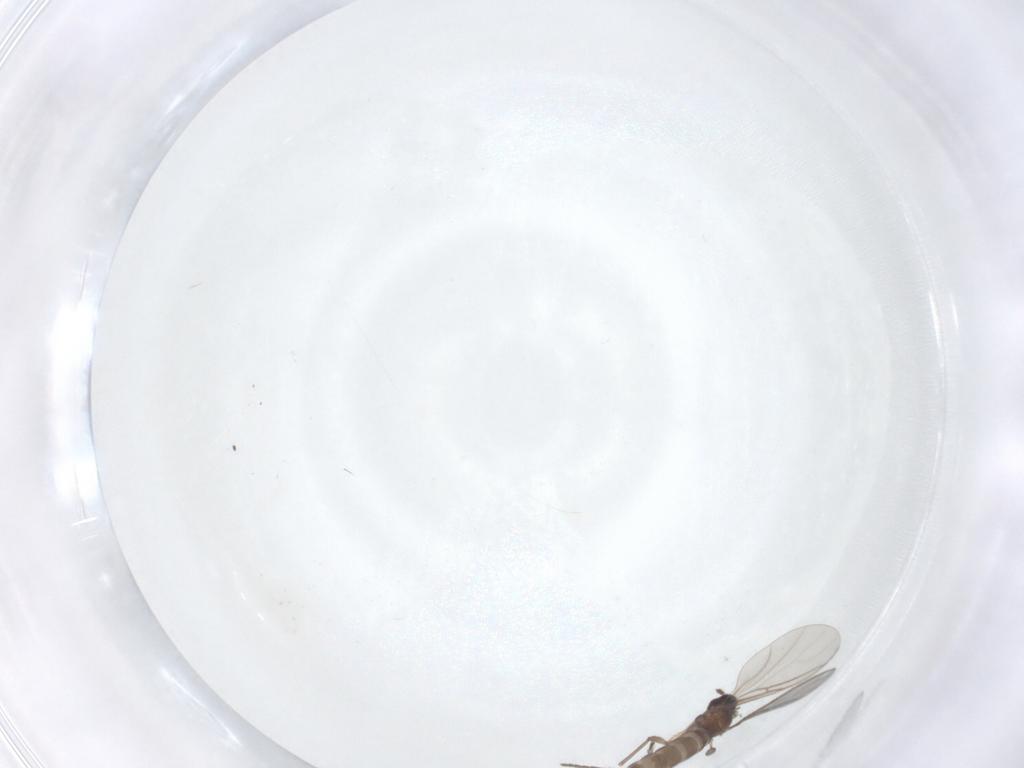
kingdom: Animalia
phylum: Arthropoda
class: Insecta
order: Diptera
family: Sciaridae
